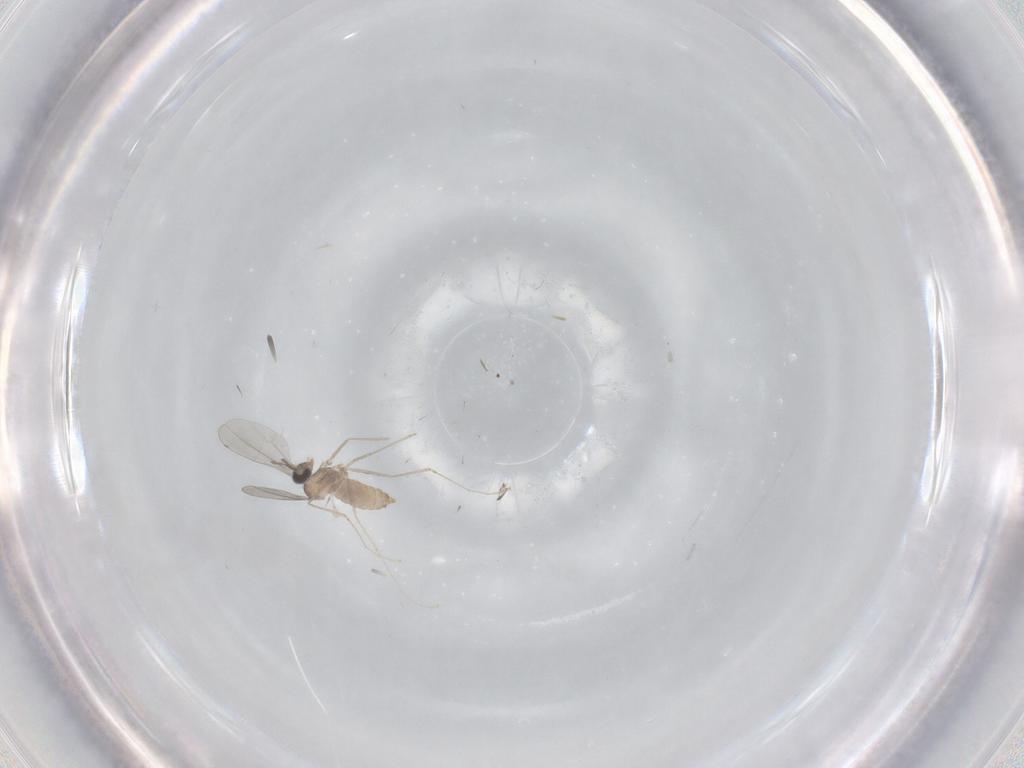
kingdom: Animalia
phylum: Arthropoda
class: Insecta
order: Diptera
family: Cecidomyiidae
